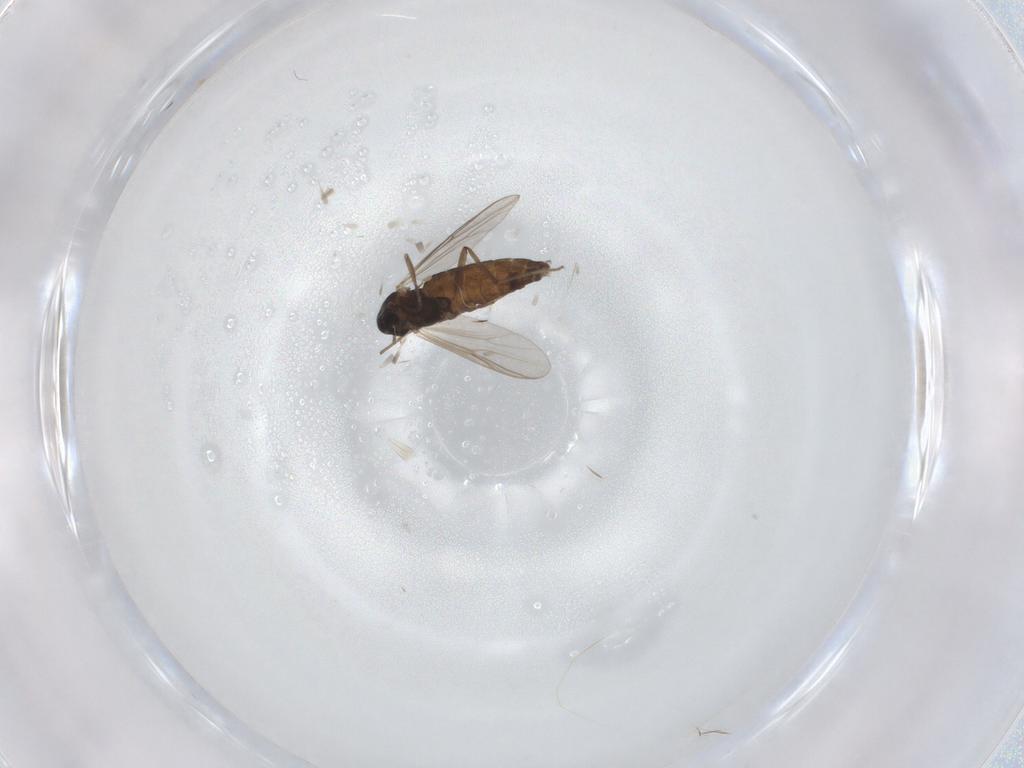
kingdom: Animalia
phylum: Arthropoda
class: Insecta
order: Diptera
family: Chironomidae
